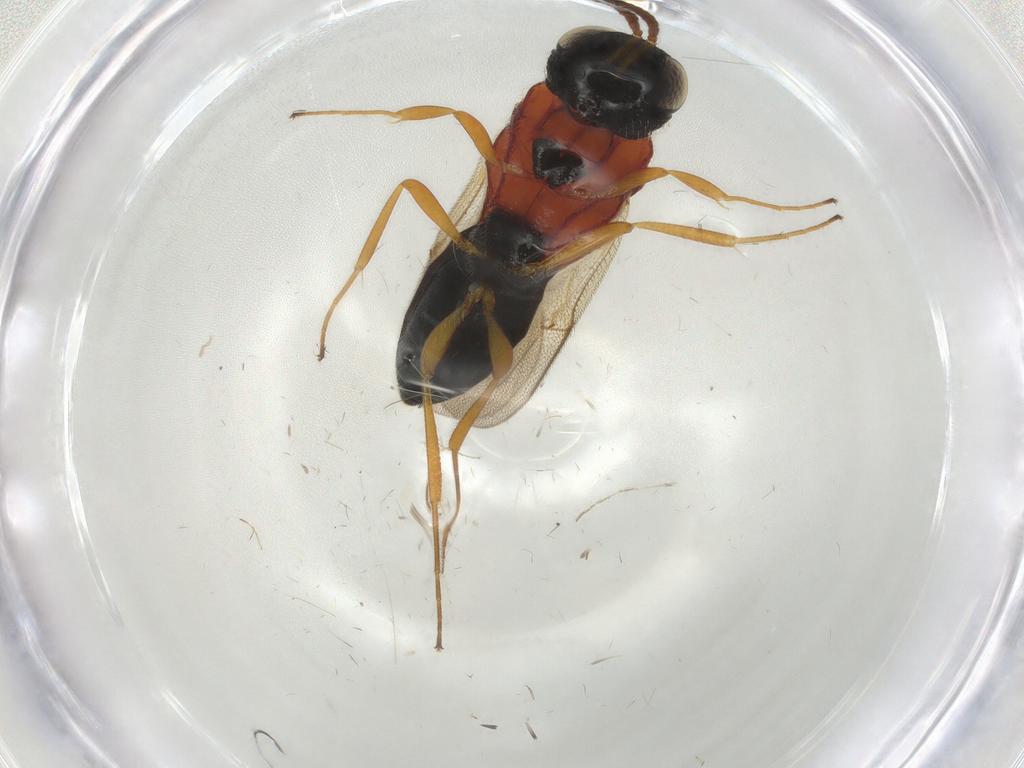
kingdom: Animalia
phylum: Arthropoda
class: Insecta
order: Hymenoptera
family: Scelionidae
